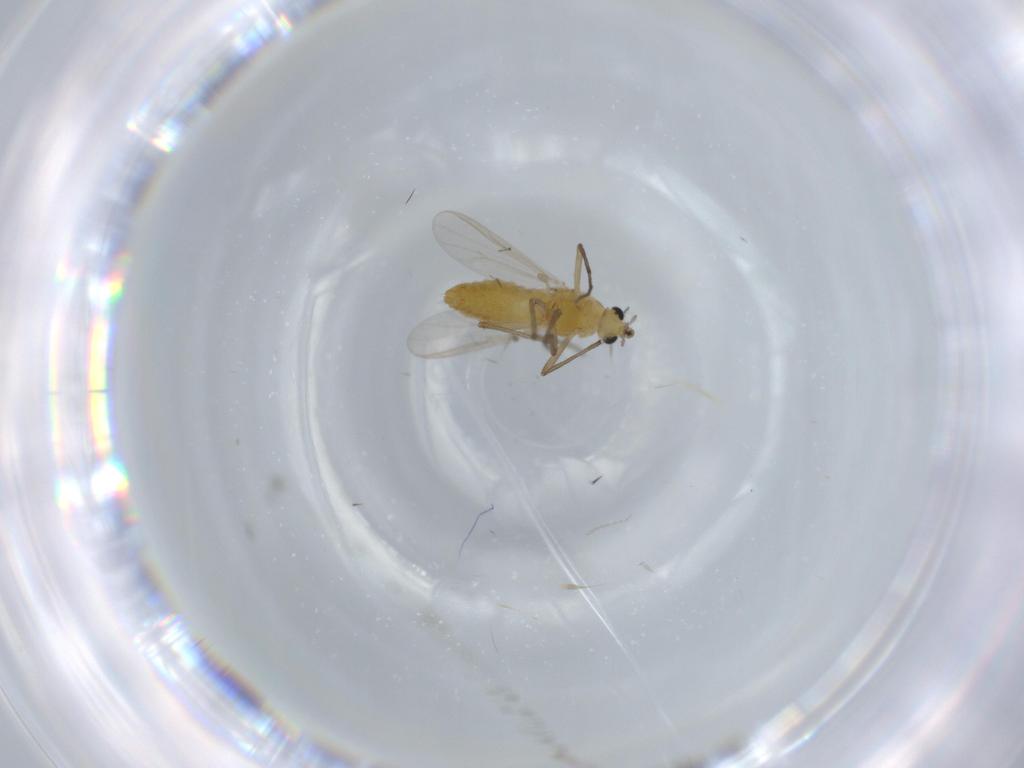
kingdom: Animalia
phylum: Arthropoda
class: Insecta
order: Diptera
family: Chironomidae
